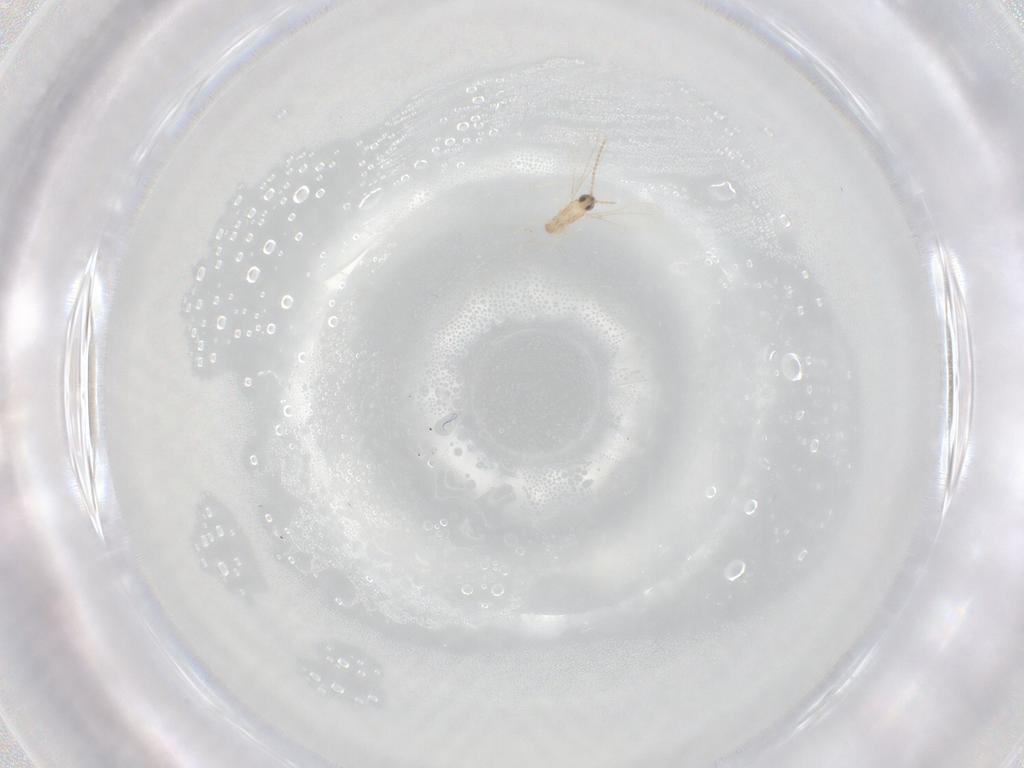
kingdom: Animalia
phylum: Arthropoda
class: Insecta
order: Diptera
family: Cecidomyiidae
